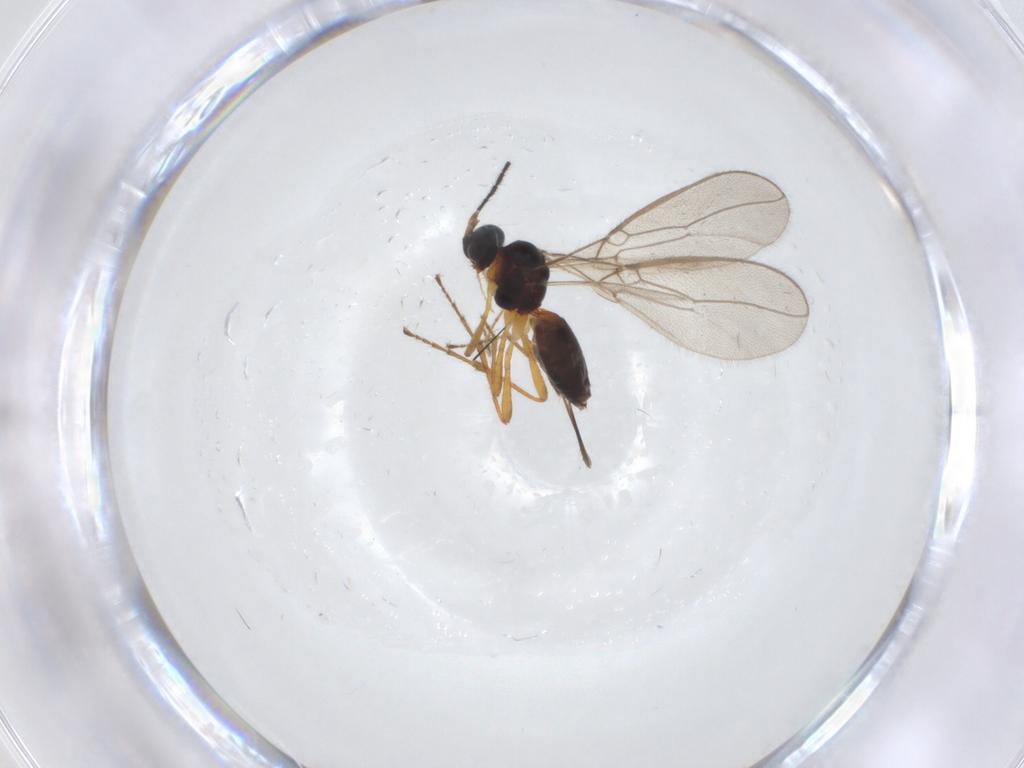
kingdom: Animalia
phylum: Arthropoda
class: Insecta
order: Hymenoptera
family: Braconidae
